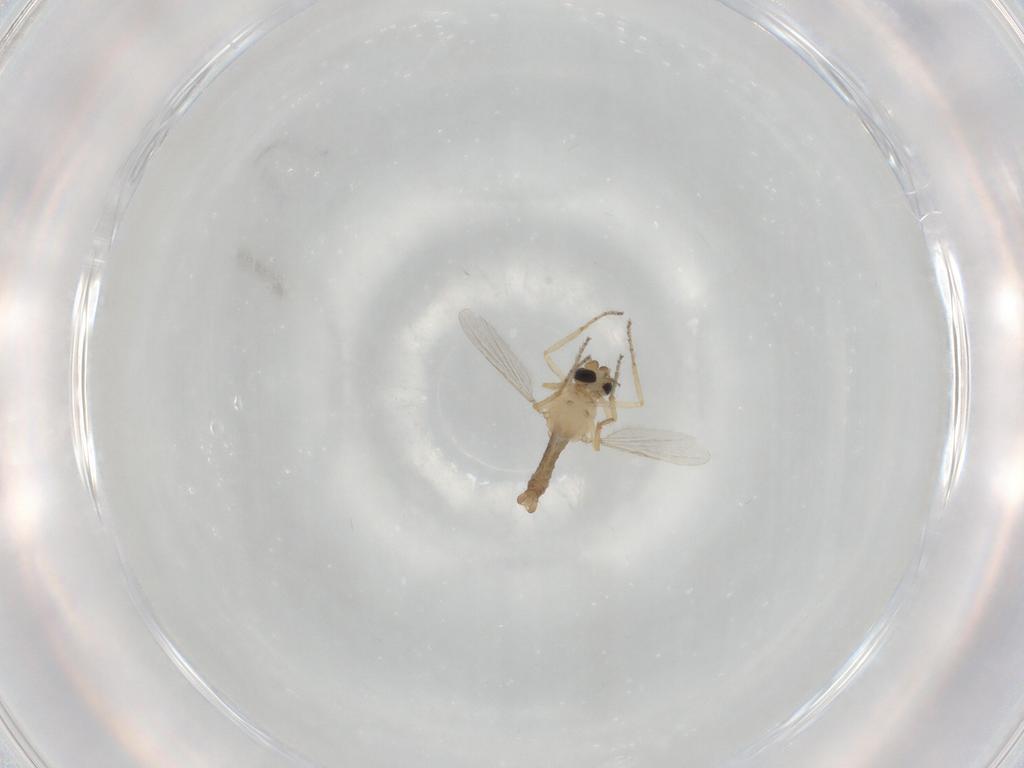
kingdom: Animalia
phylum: Arthropoda
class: Insecta
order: Diptera
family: Ceratopogonidae
